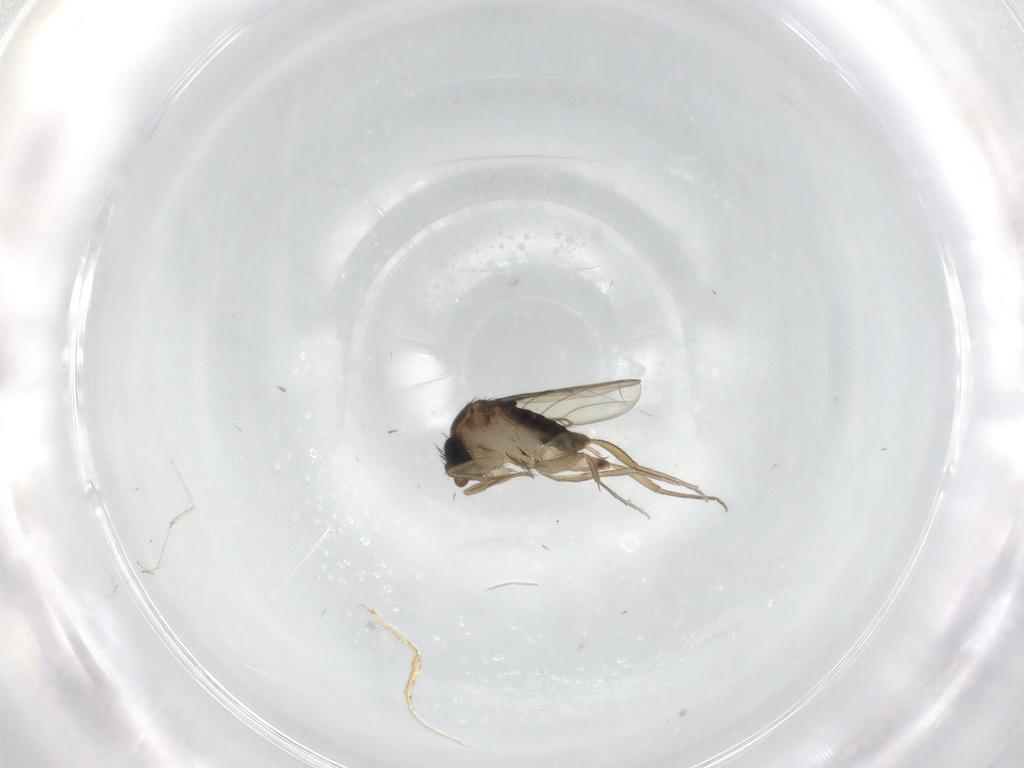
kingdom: Animalia
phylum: Arthropoda
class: Insecta
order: Diptera
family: Phoridae
